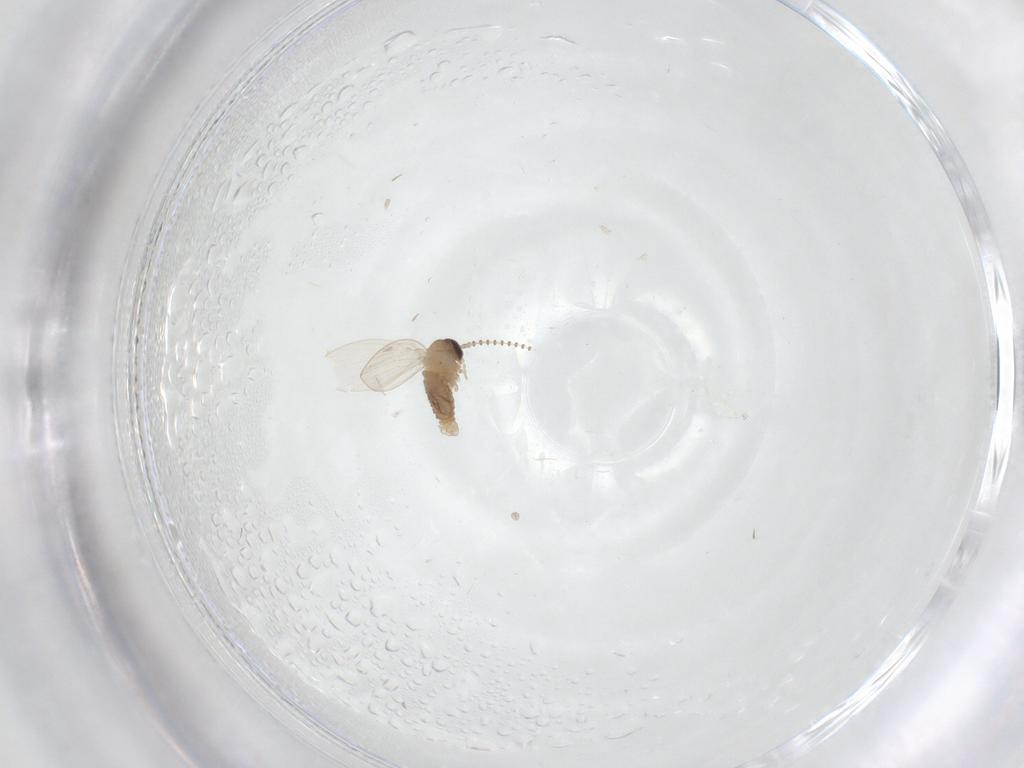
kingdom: Animalia
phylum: Arthropoda
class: Insecta
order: Diptera
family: Psychodidae
